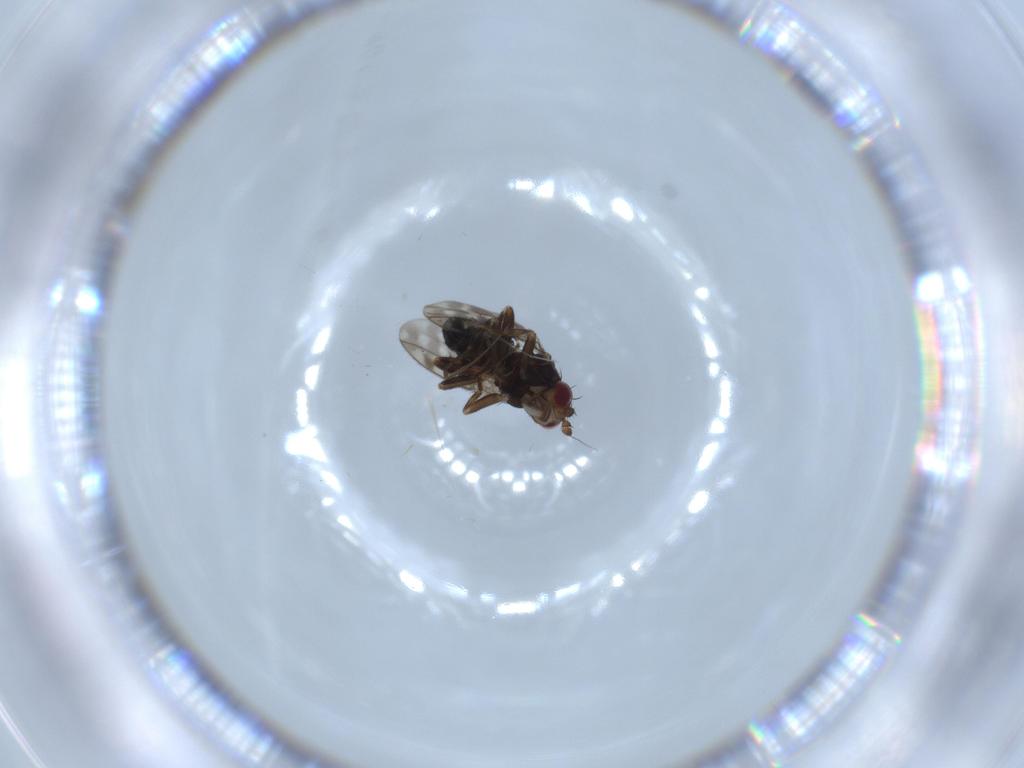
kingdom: Animalia
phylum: Arthropoda
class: Insecta
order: Diptera
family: Sphaeroceridae
